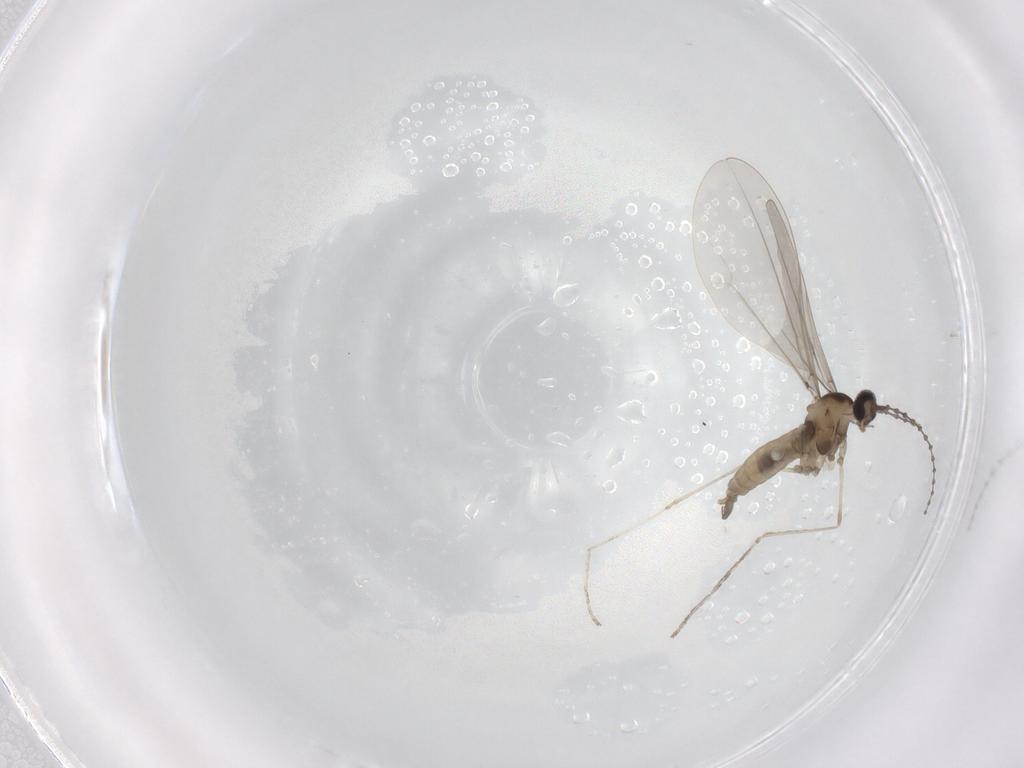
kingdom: Animalia
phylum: Arthropoda
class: Insecta
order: Diptera
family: Cecidomyiidae
